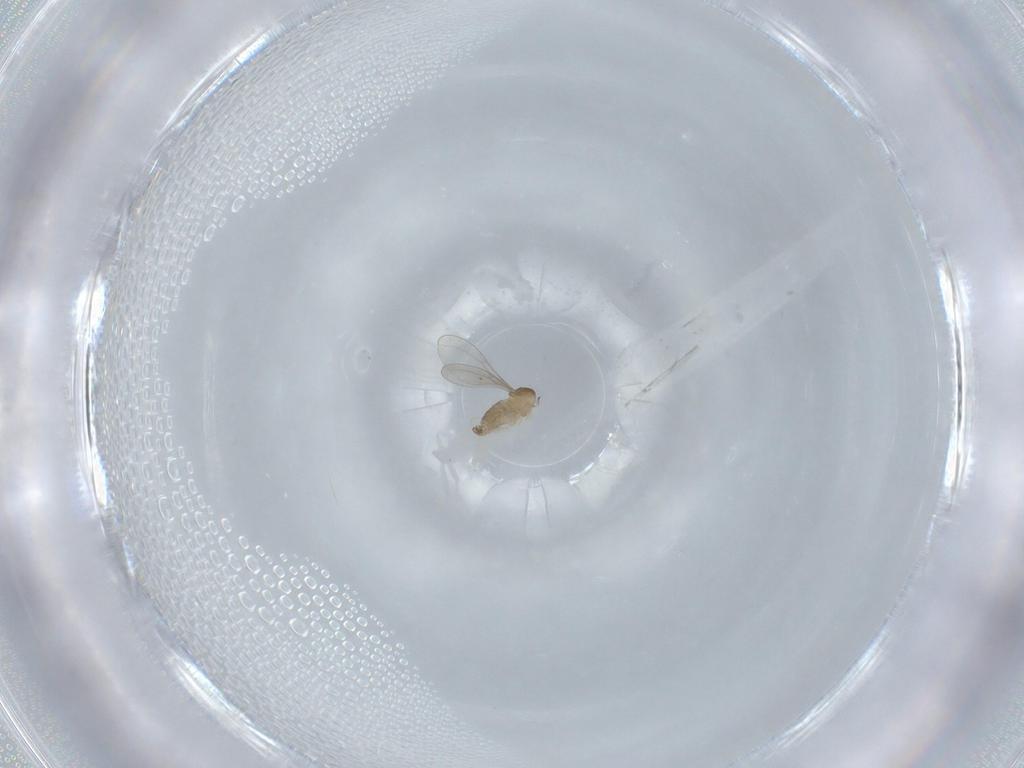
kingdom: Animalia
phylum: Arthropoda
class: Insecta
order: Diptera
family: Cecidomyiidae
